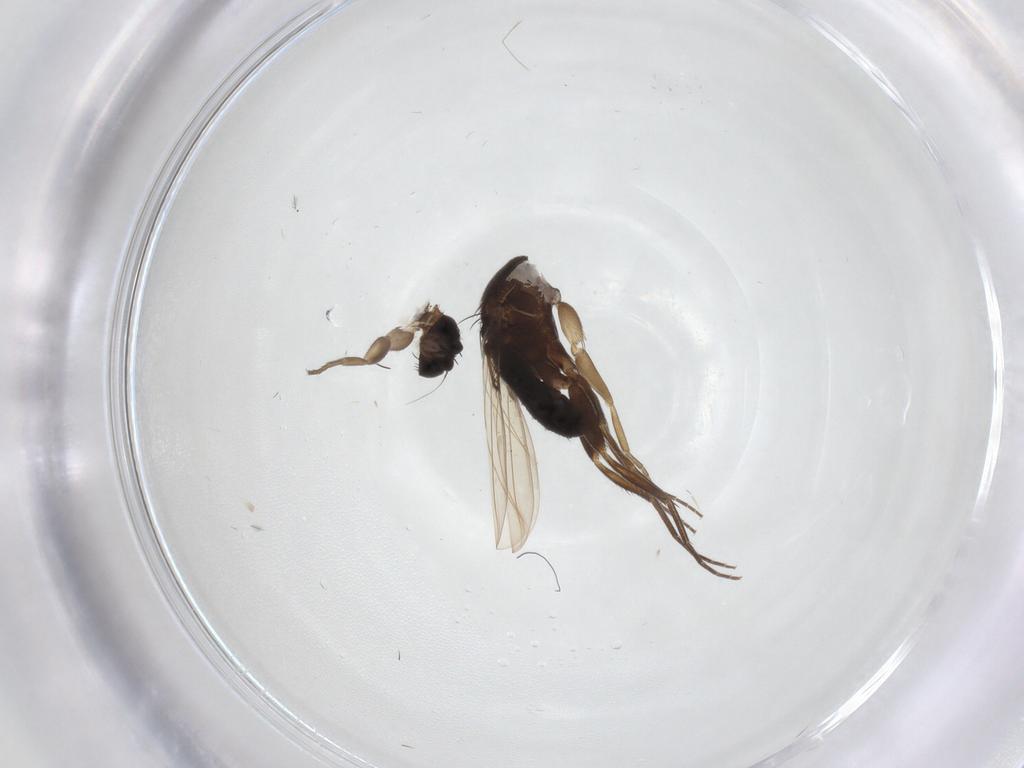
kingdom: Animalia
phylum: Arthropoda
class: Insecta
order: Diptera
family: Phoridae
